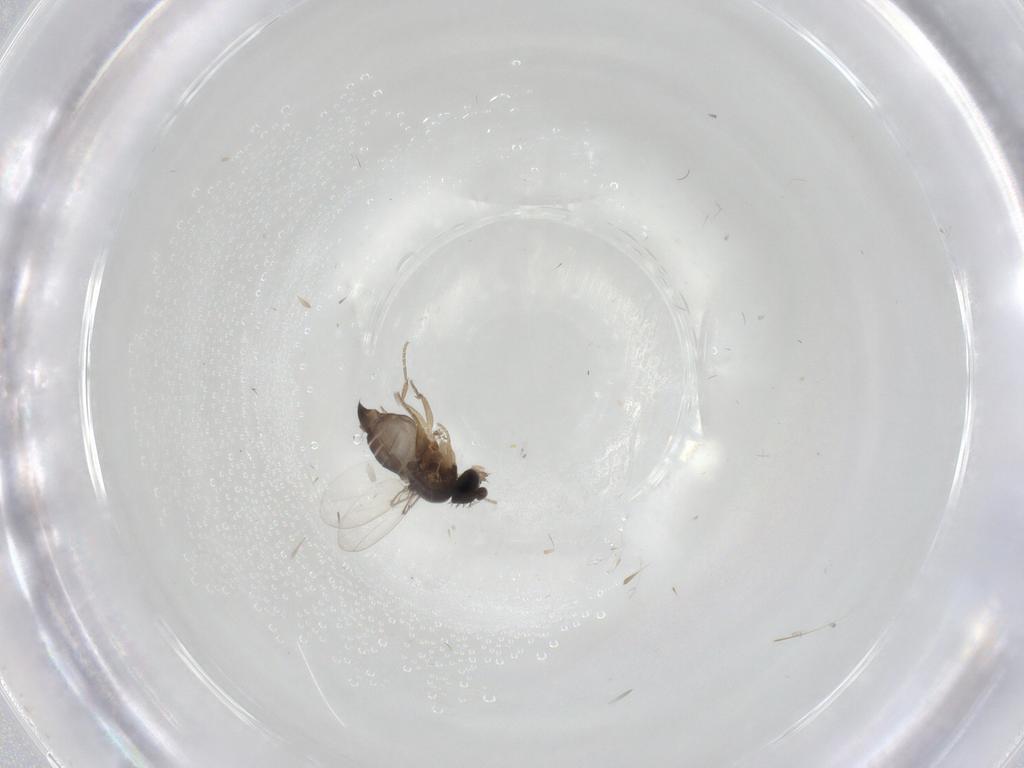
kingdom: Animalia
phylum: Arthropoda
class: Insecta
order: Diptera
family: Phoridae
